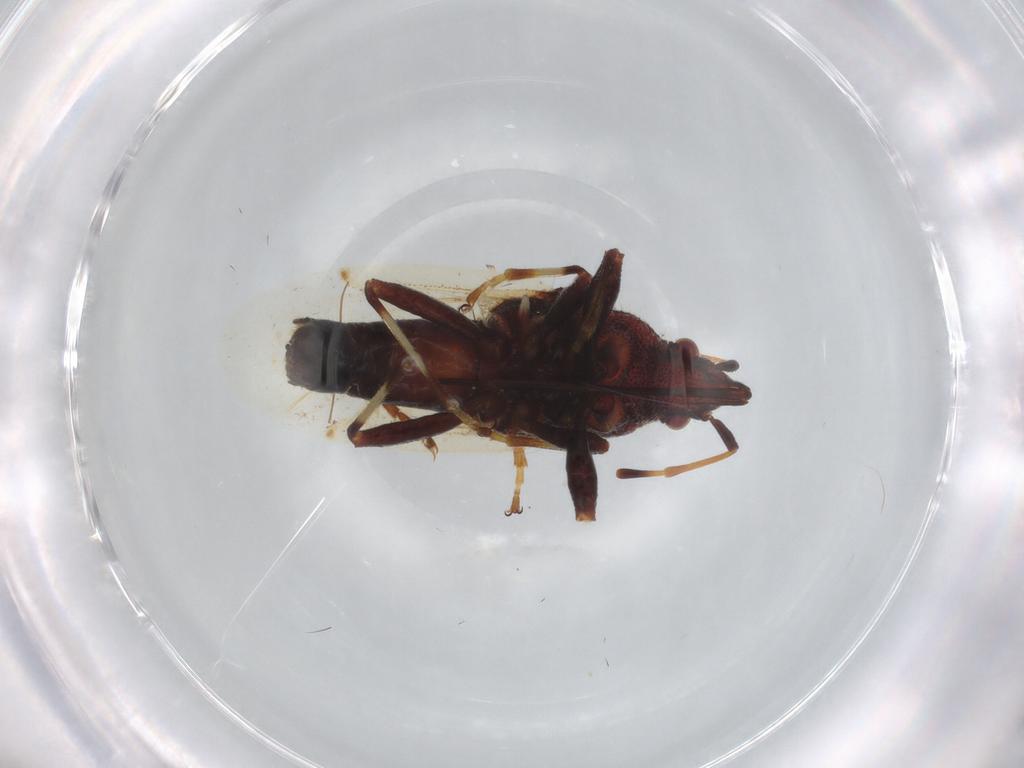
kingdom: Animalia
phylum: Arthropoda
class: Insecta
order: Hemiptera
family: Oxycarenidae
